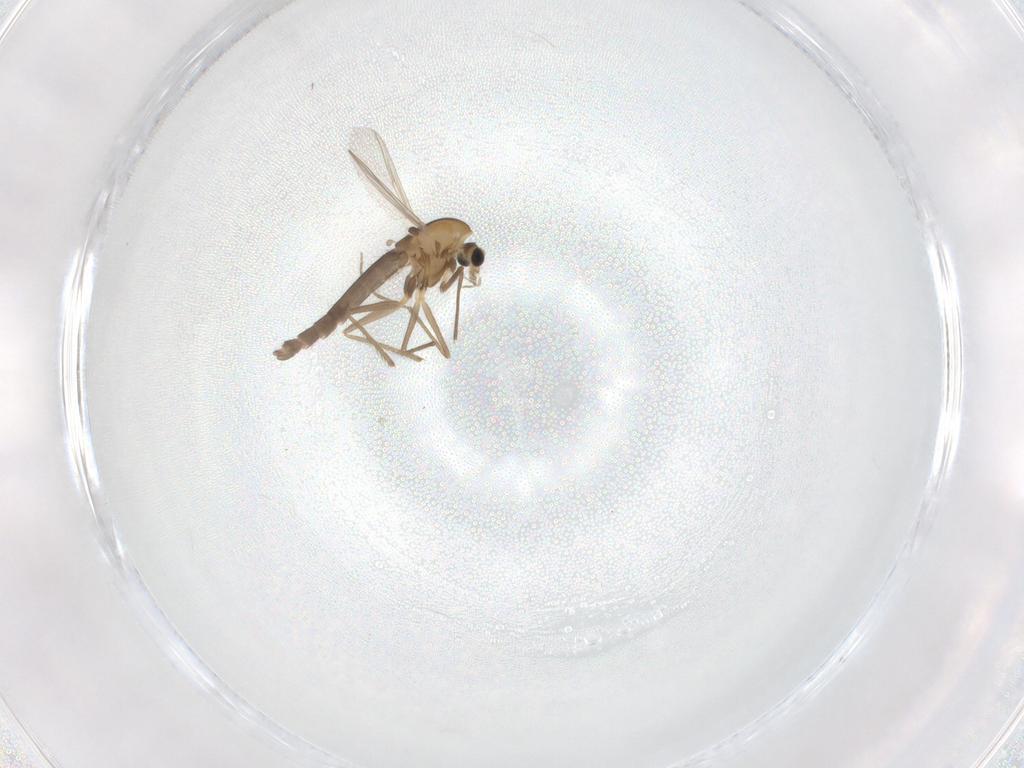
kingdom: Animalia
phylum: Arthropoda
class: Insecta
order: Diptera
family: Chironomidae
